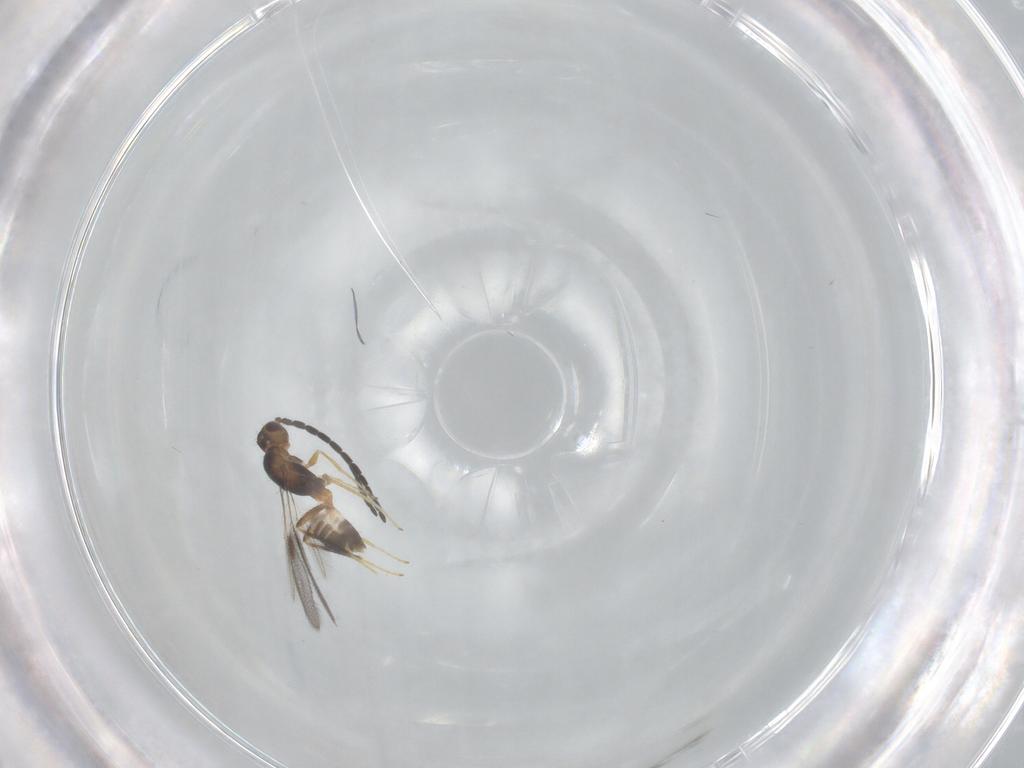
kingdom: Animalia
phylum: Arthropoda
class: Insecta
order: Hymenoptera
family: Mymaridae
